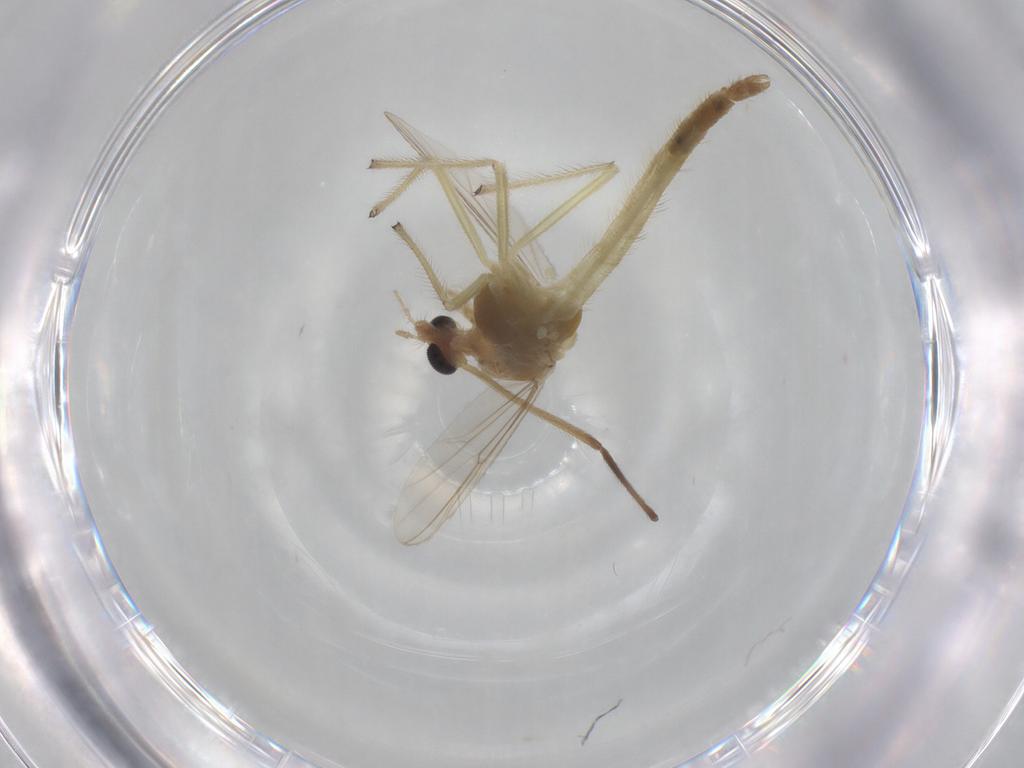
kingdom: Animalia
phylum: Arthropoda
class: Insecta
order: Diptera
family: Chironomidae
